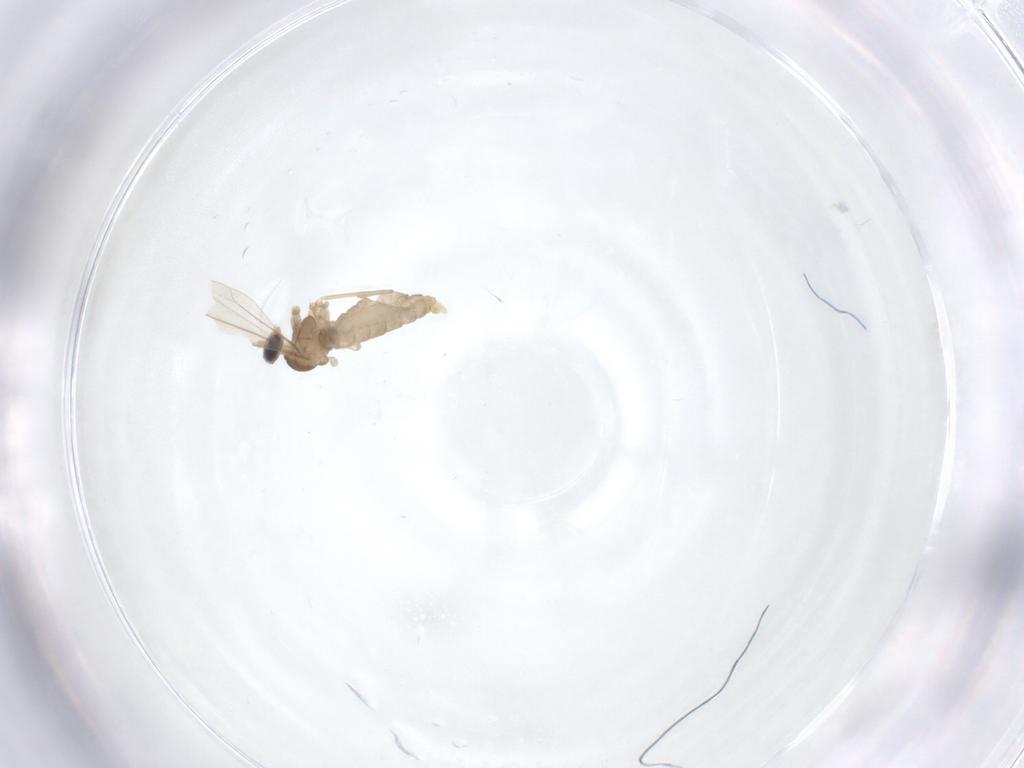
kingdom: Animalia
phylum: Arthropoda
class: Insecta
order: Diptera
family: Cecidomyiidae
